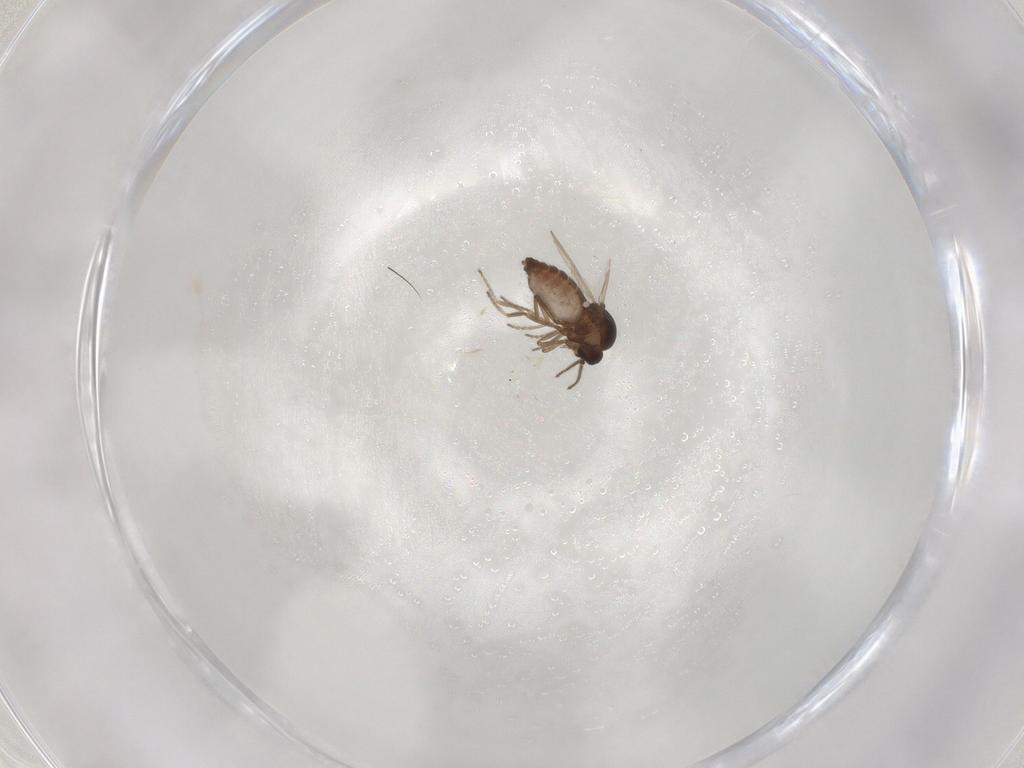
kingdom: Animalia
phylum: Arthropoda
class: Insecta
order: Diptera
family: Ceratopogonidae
